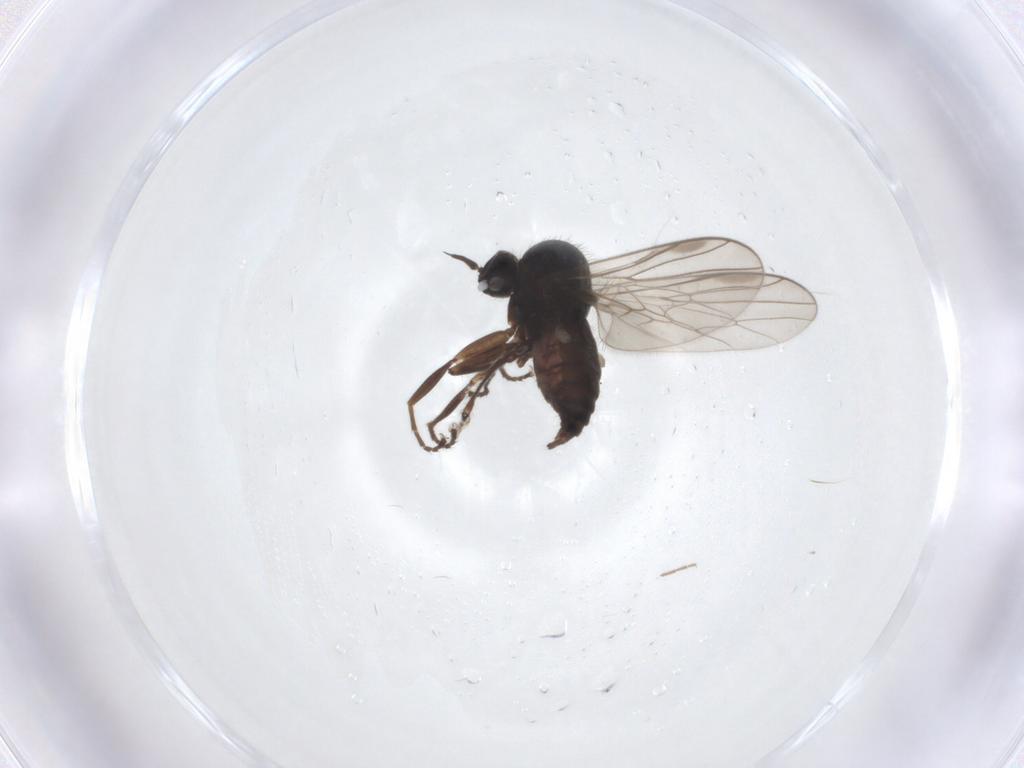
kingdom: Animalia
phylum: Arthropoda
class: Insecta
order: Diptera
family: Hybotidae
